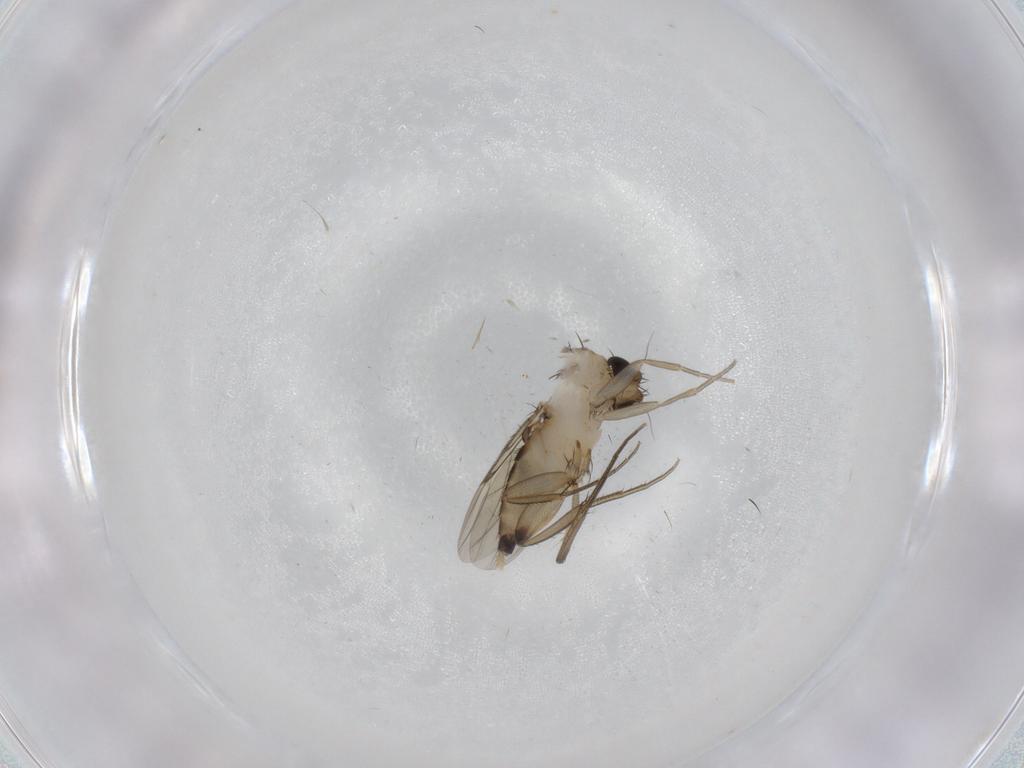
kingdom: Animalia
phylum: Arthropoda
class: Insecta
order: Diptera
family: Phoridae
